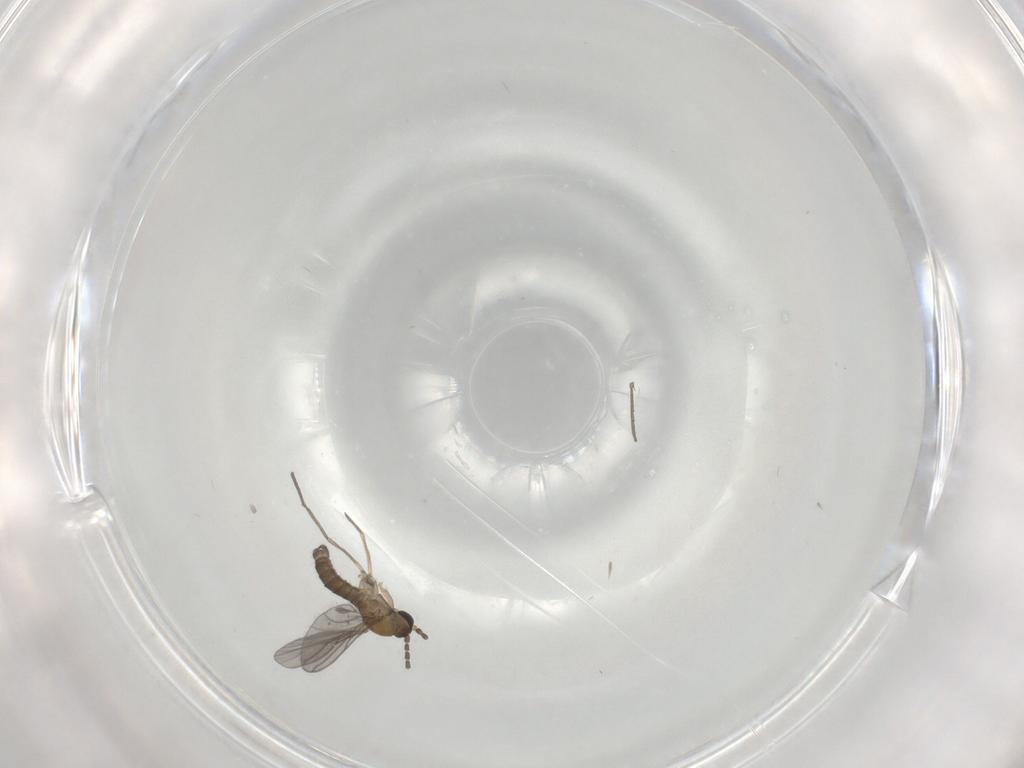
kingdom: Animalia
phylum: Arthropoda
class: Insecta
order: Diptera
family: Sciaridae
